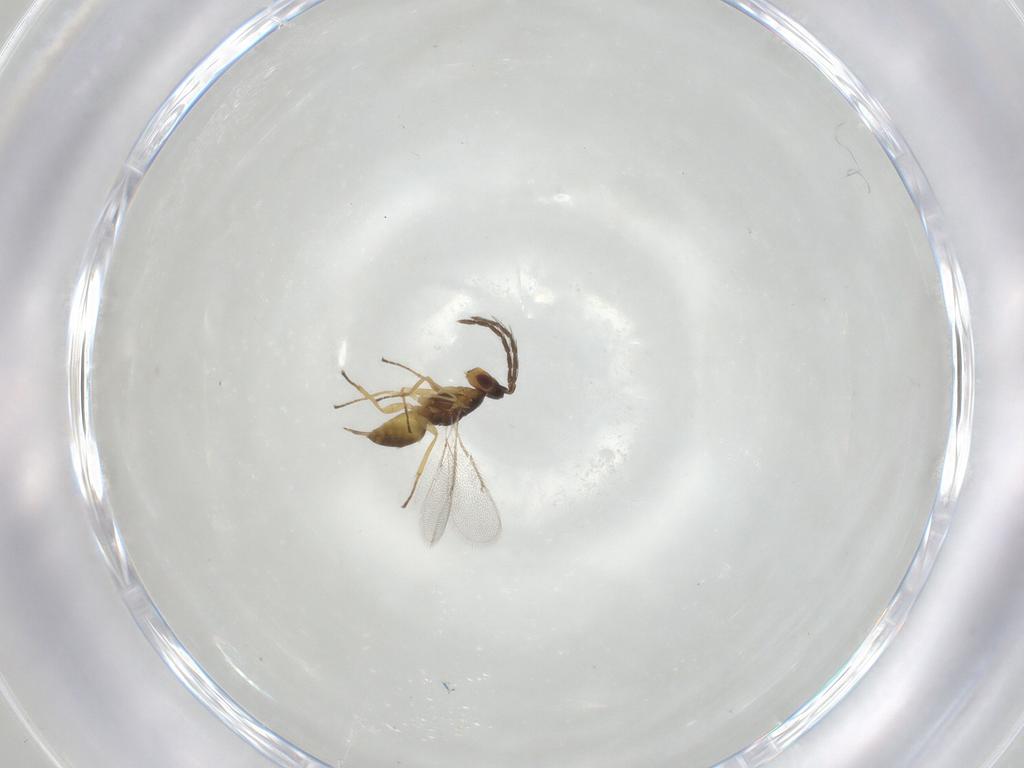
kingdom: Animalia
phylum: Arthropoda
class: Insecta
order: Hymenoptera
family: Eulophidae
